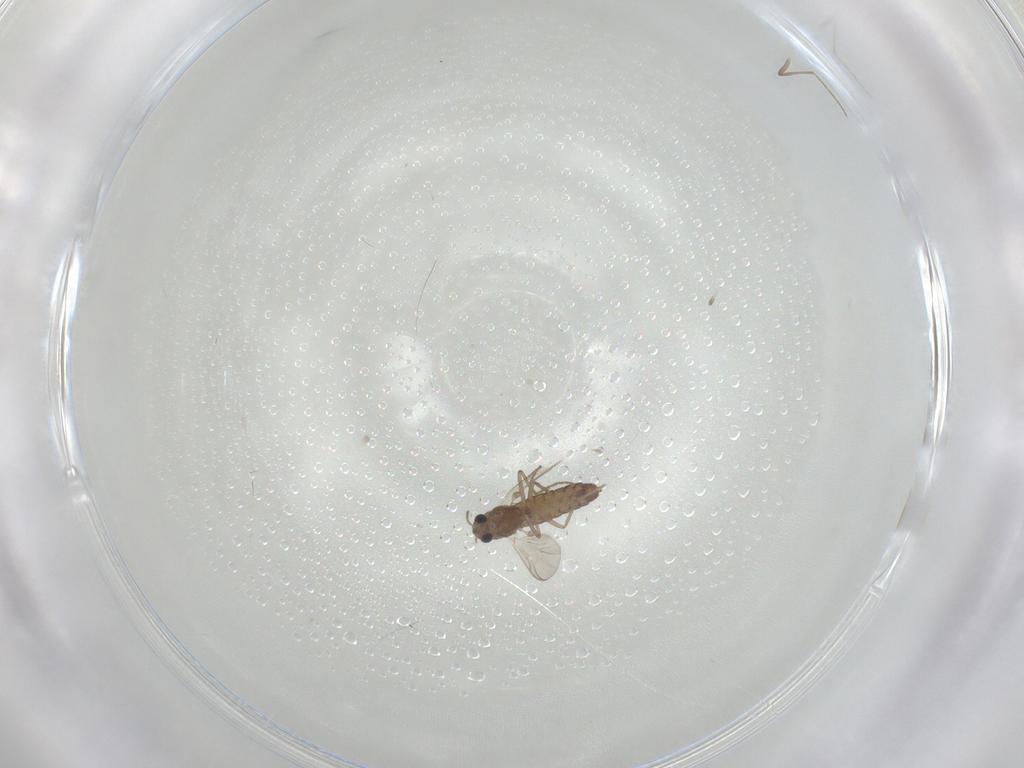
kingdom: Animalia
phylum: Arthropoda
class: Insecta
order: Diptera
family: Chironomidae
